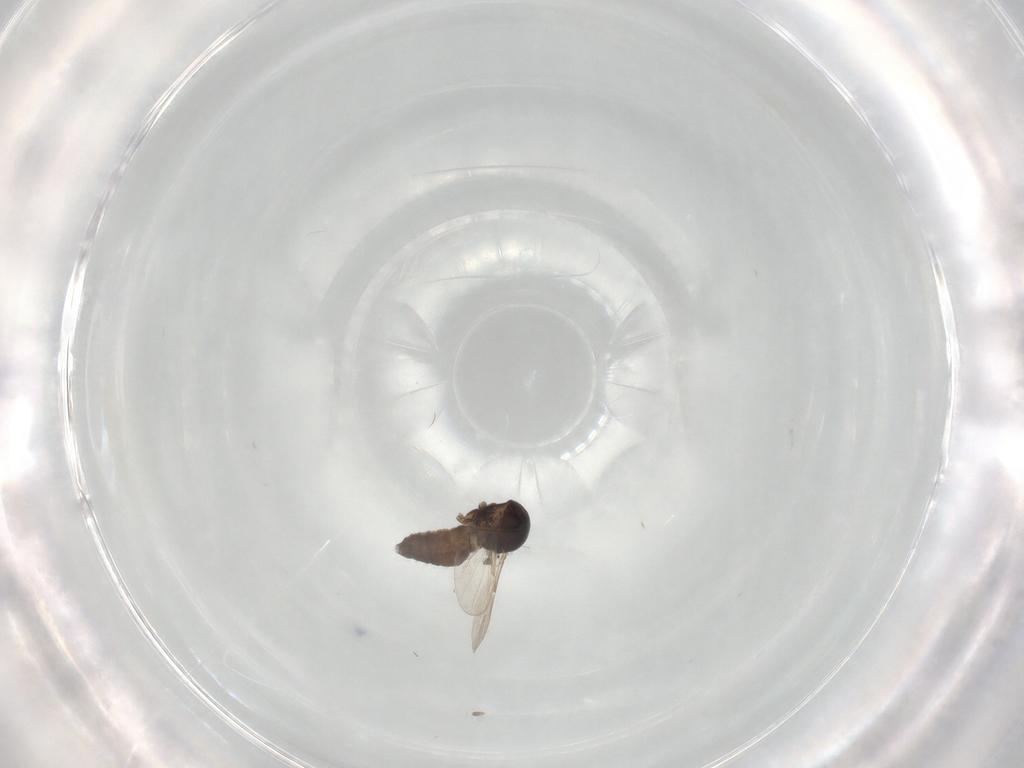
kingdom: Animalia
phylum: Arthropoda
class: Insecta
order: Diptera
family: Ceratopogonidae
